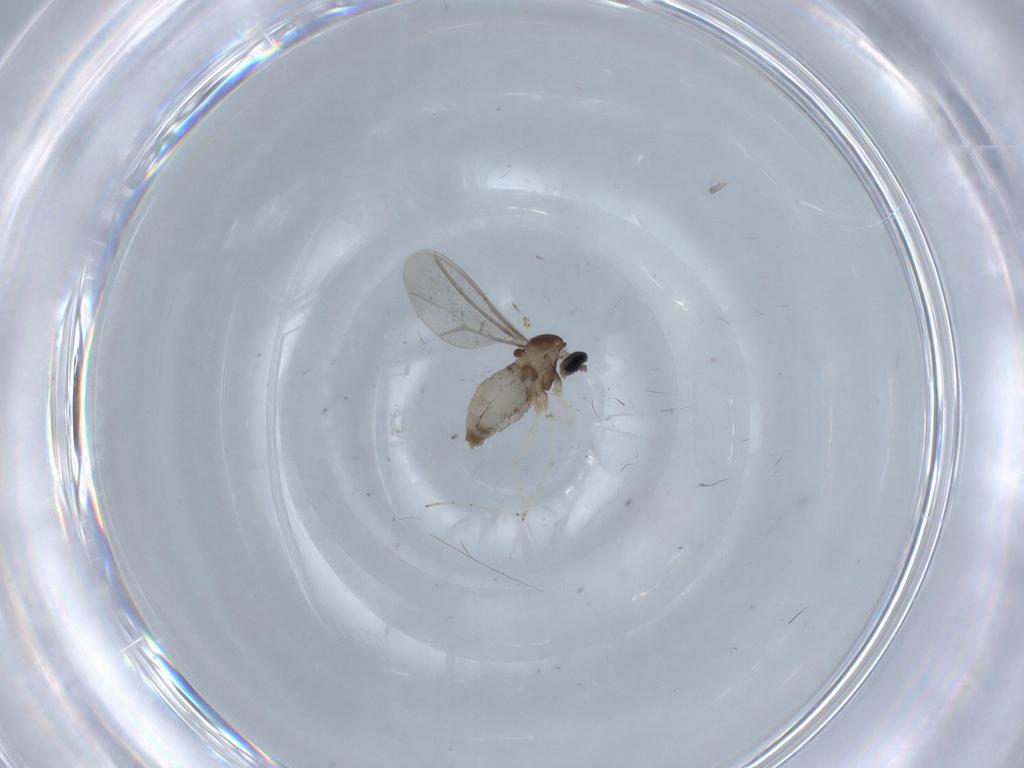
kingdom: Animalia
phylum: Arthropoda
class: Insecta
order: Diptera
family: Cecidomyiidae
